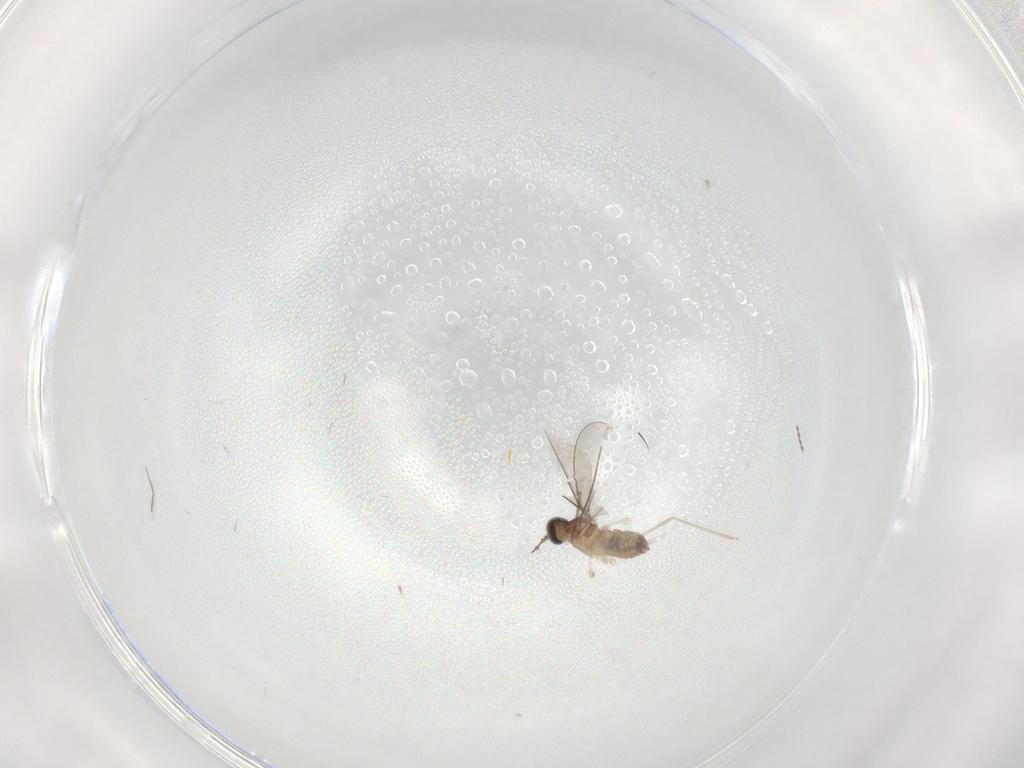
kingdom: Animalia
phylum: Arthropoda
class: Insecta
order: Diptera
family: Cecidomyiidae
